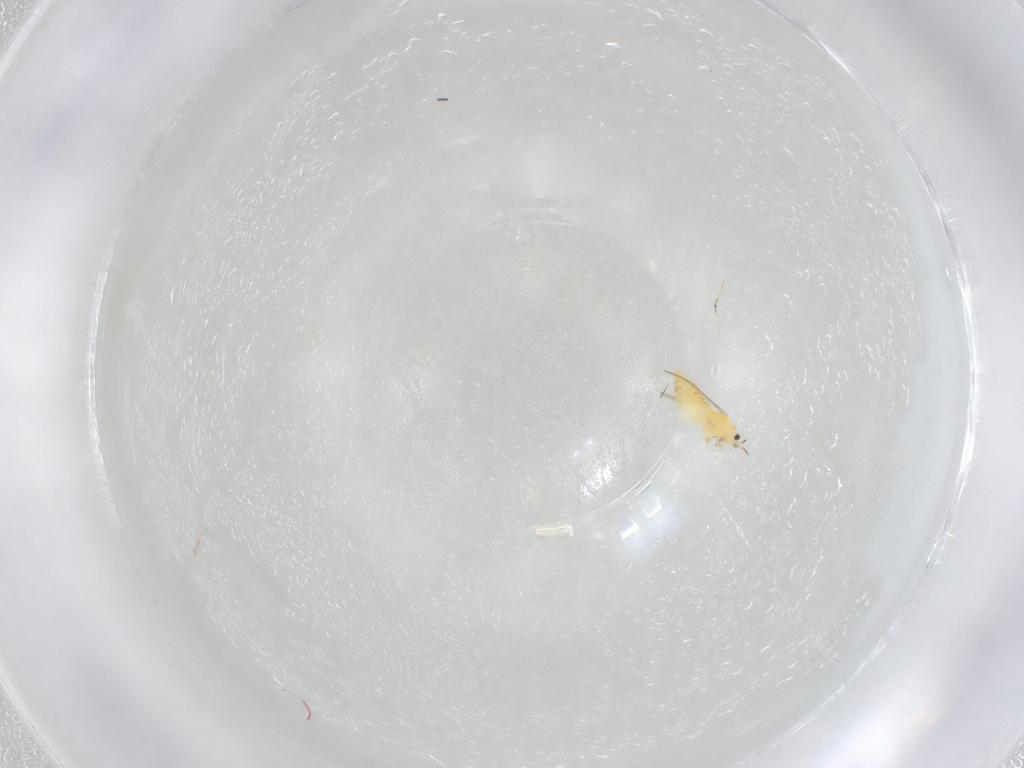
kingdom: Animalia
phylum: Arthropoda
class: Insecta
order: Thysanoptera
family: Thripidae
